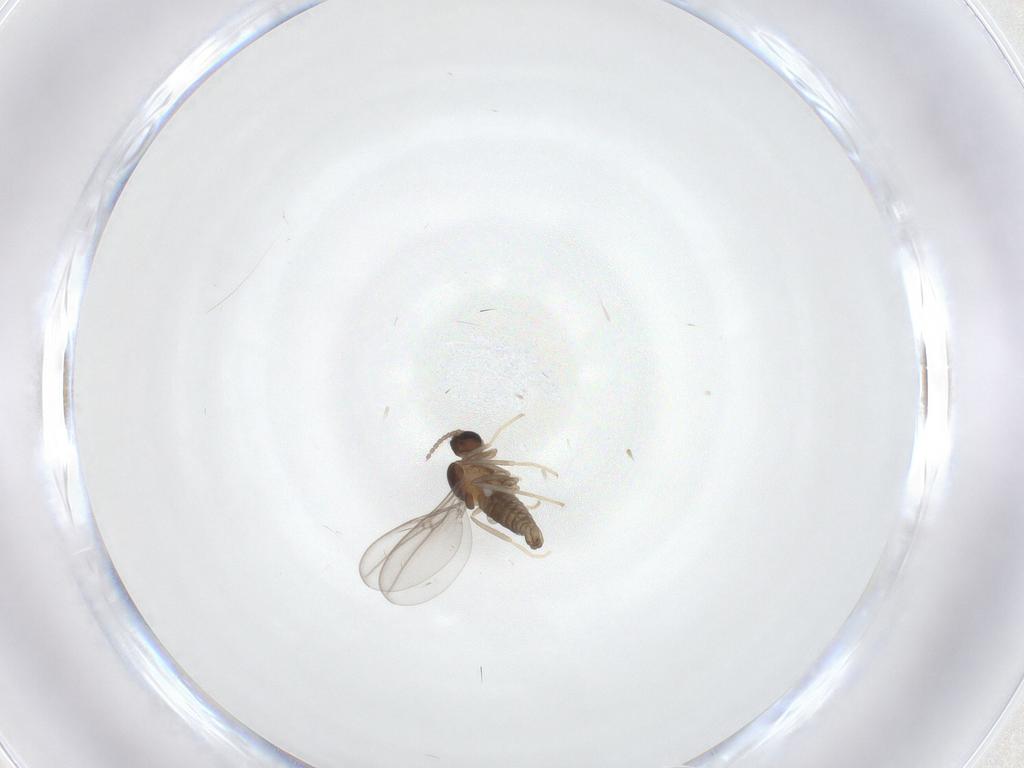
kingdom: Animalia
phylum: Arthropoda
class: Insecta
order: Diptera
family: Cecidomyiidae
